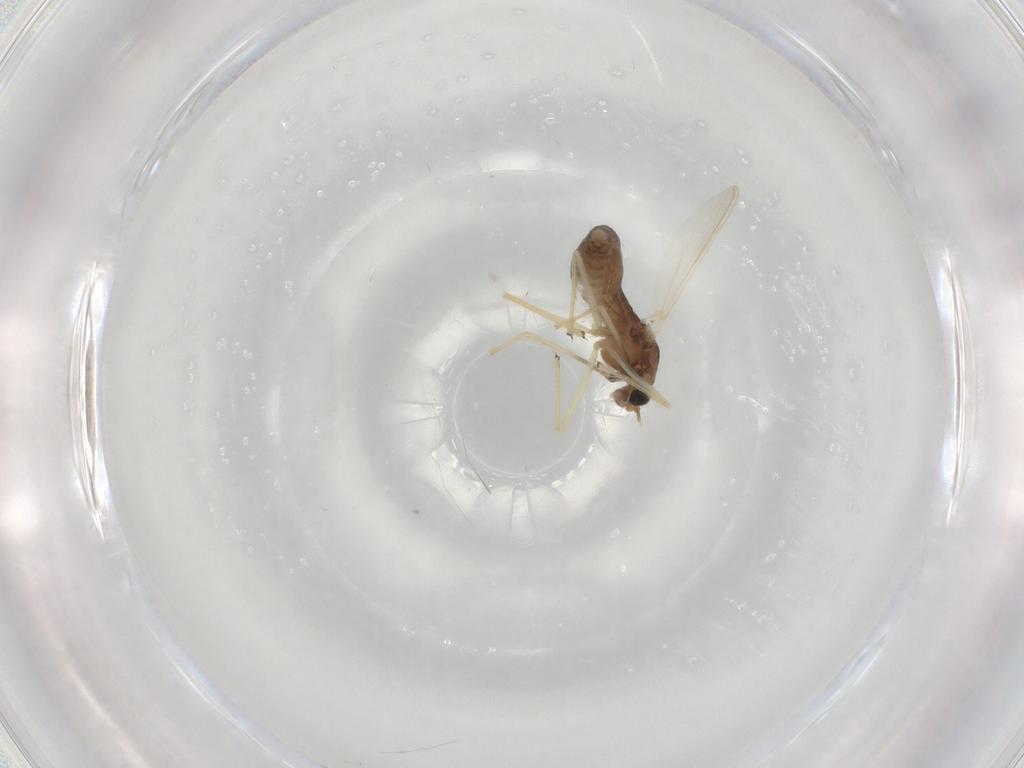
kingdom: Animalia
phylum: Arthropoda
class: Insecta
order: Diptera
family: Chironomidae
